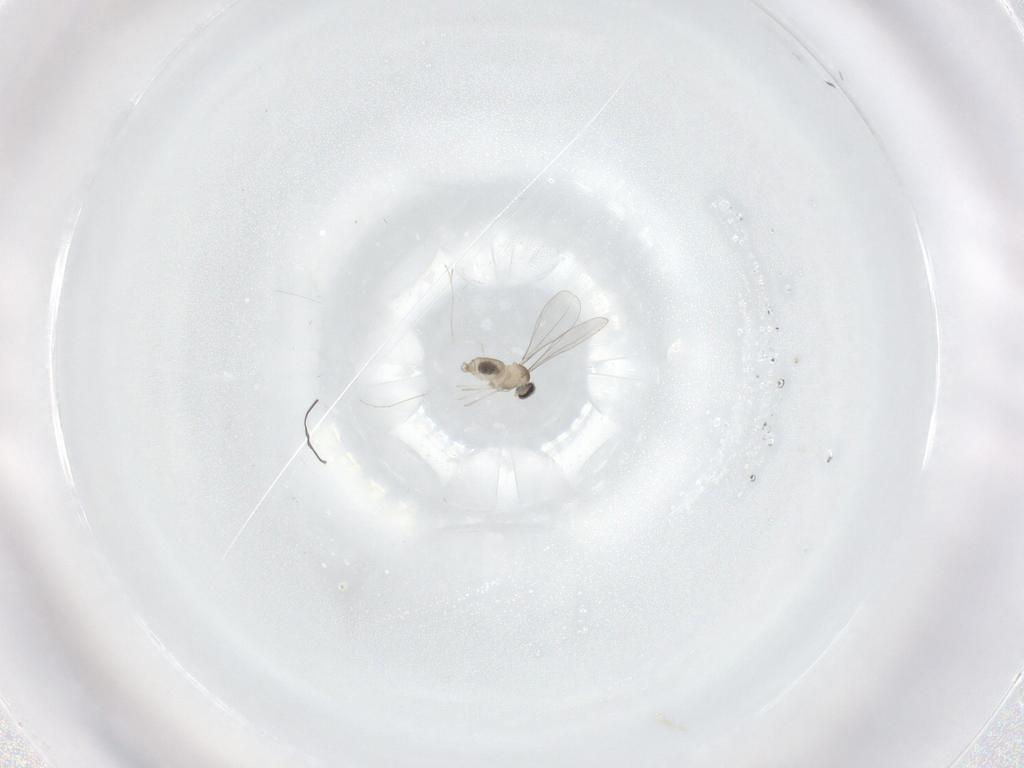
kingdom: Animalia
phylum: Arthropoda
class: Insecta
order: Diptera
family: Cecidomyiidae
